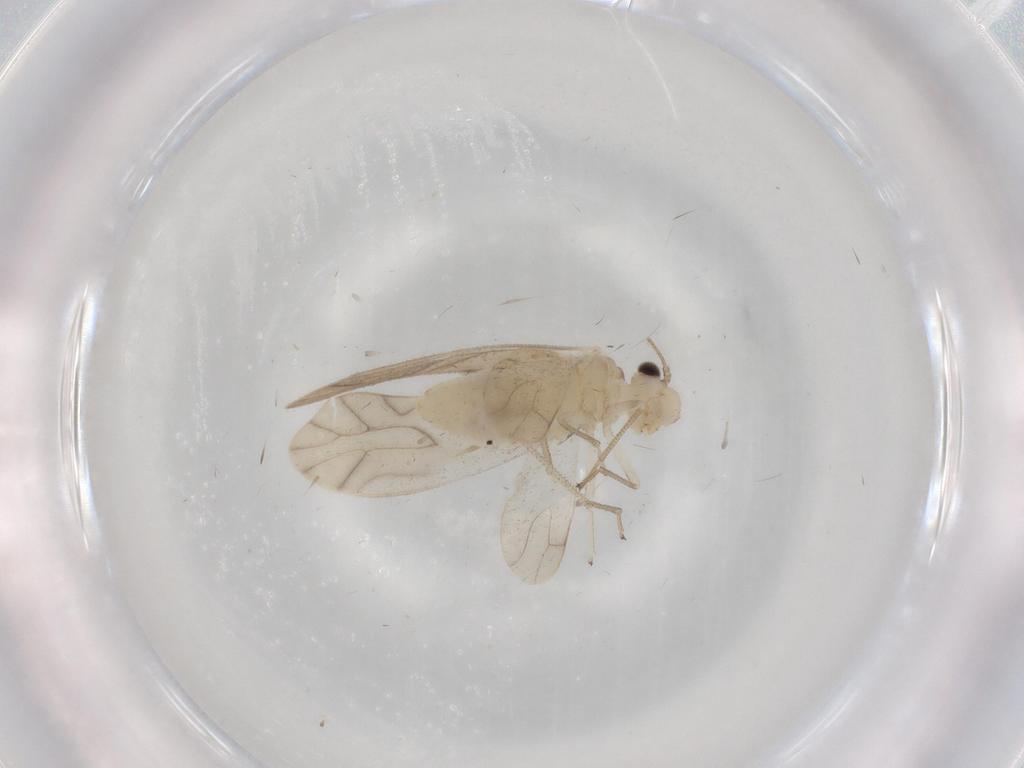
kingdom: Animalia
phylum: Arthropoda
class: Insecta
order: Psocodea
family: Caeciliusidae
